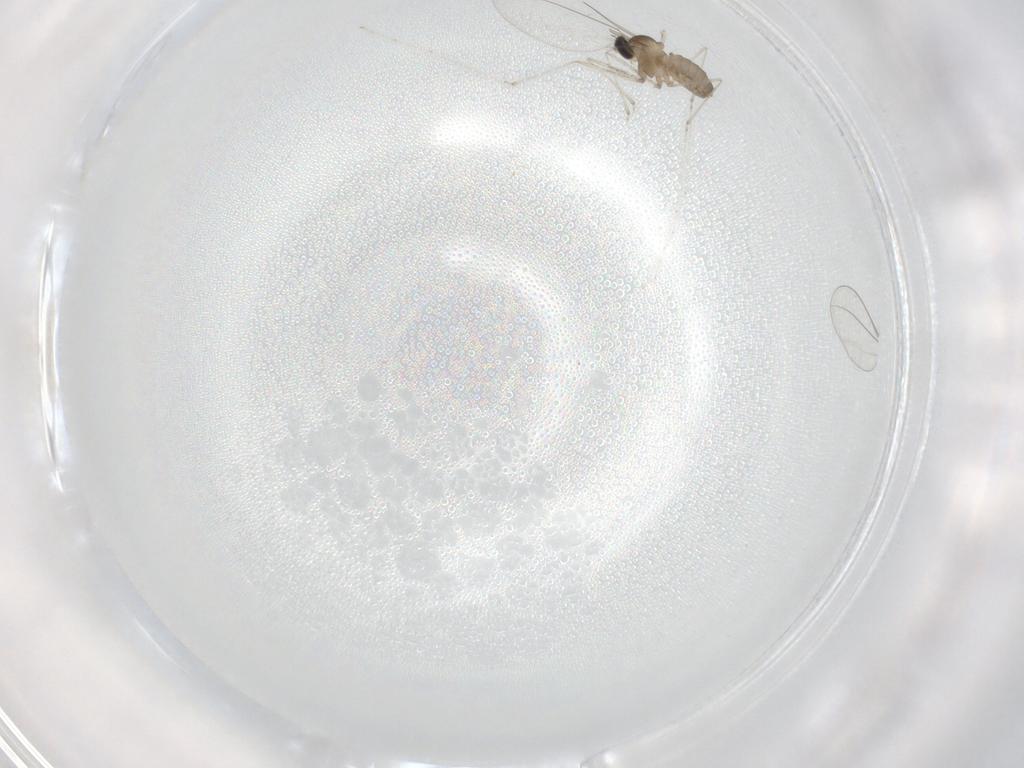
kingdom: Animalia
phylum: Arthropoda
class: Insecta
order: Diptera
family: Cecidomyiidae
